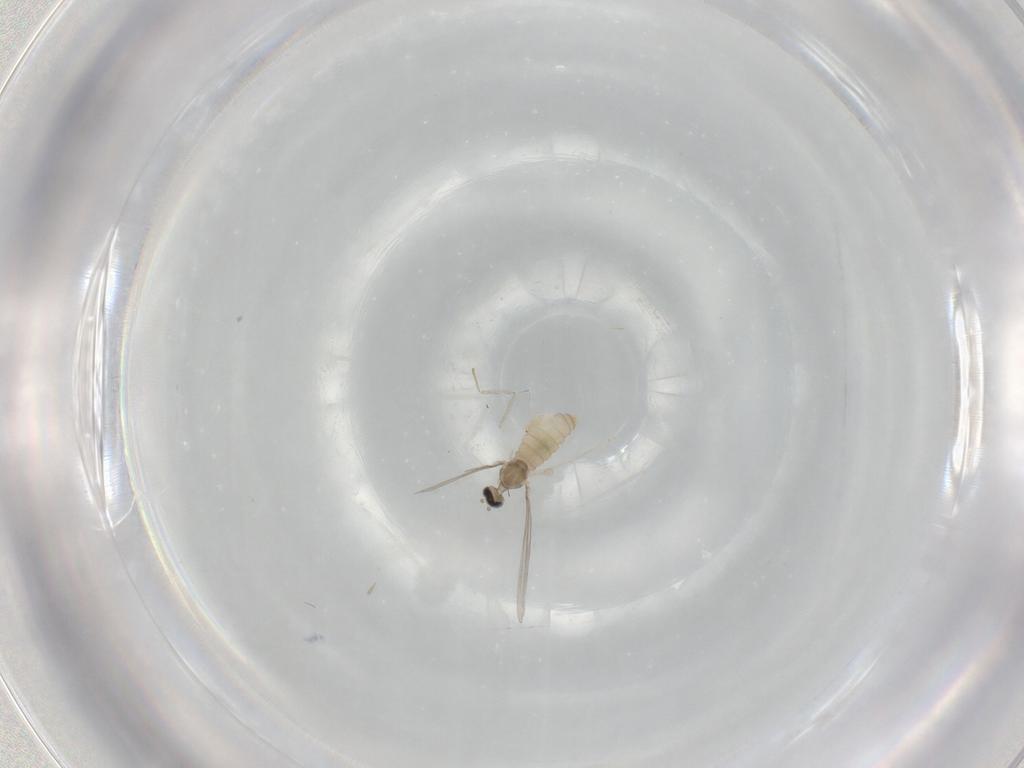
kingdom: Animalia
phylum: Arthropoda
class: Insecta
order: Diptera
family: Cecidomyiidae
